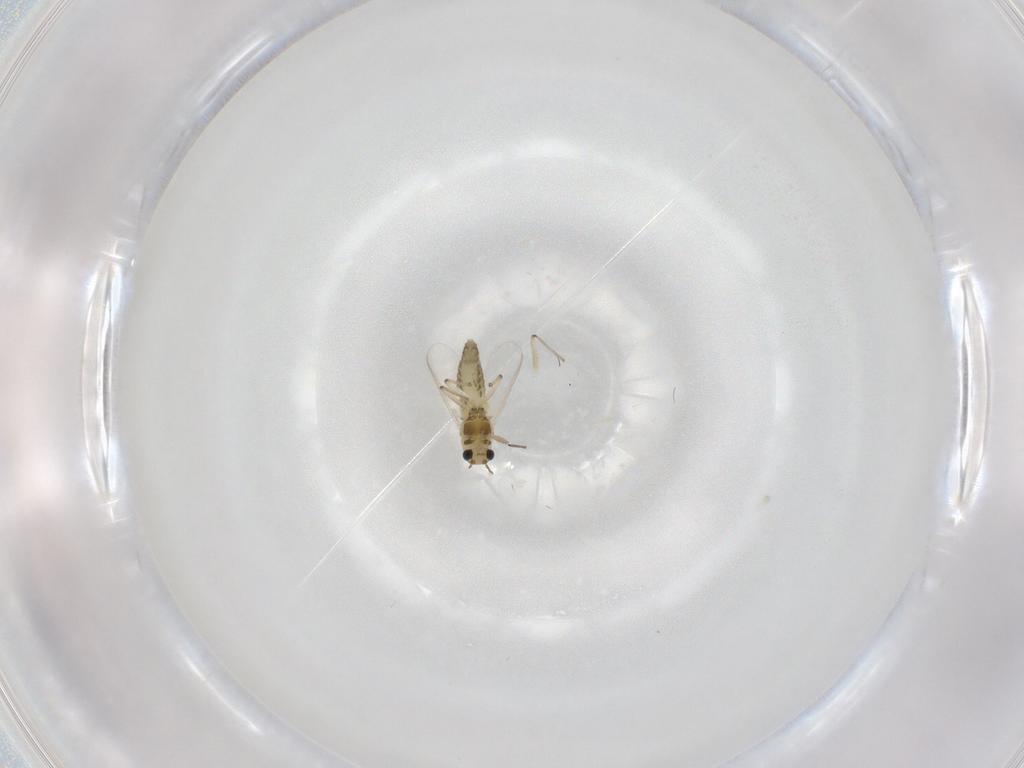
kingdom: Animalia
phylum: Arthropoda
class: Insecta
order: Diptera
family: Chironomidae
